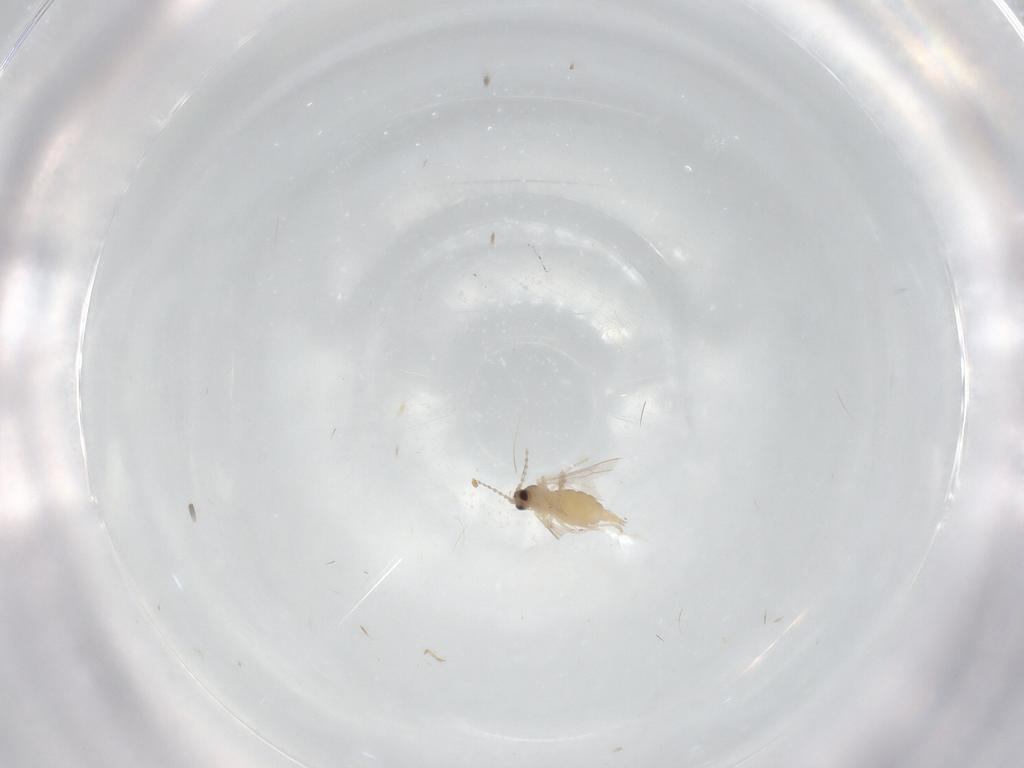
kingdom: Animalia
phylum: Arthropoda
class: Insecta
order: Diptera
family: Cecidomyiidae
